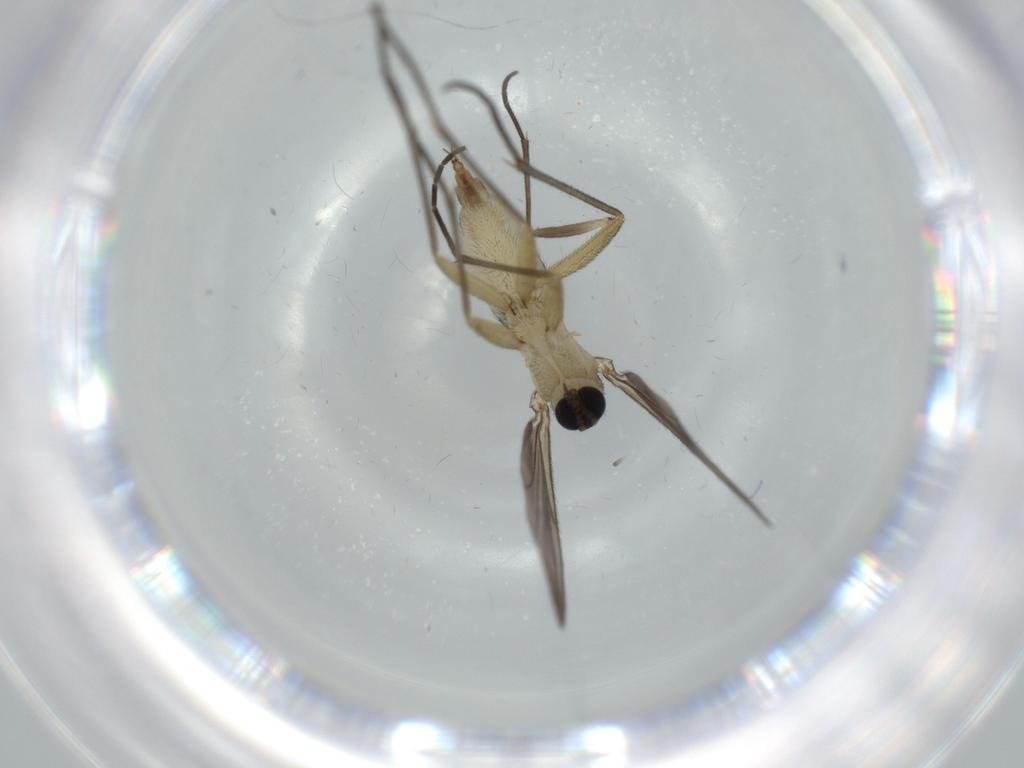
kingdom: Animalia
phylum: Arthropoda
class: Insecta
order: Diptera
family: Sciaridae
